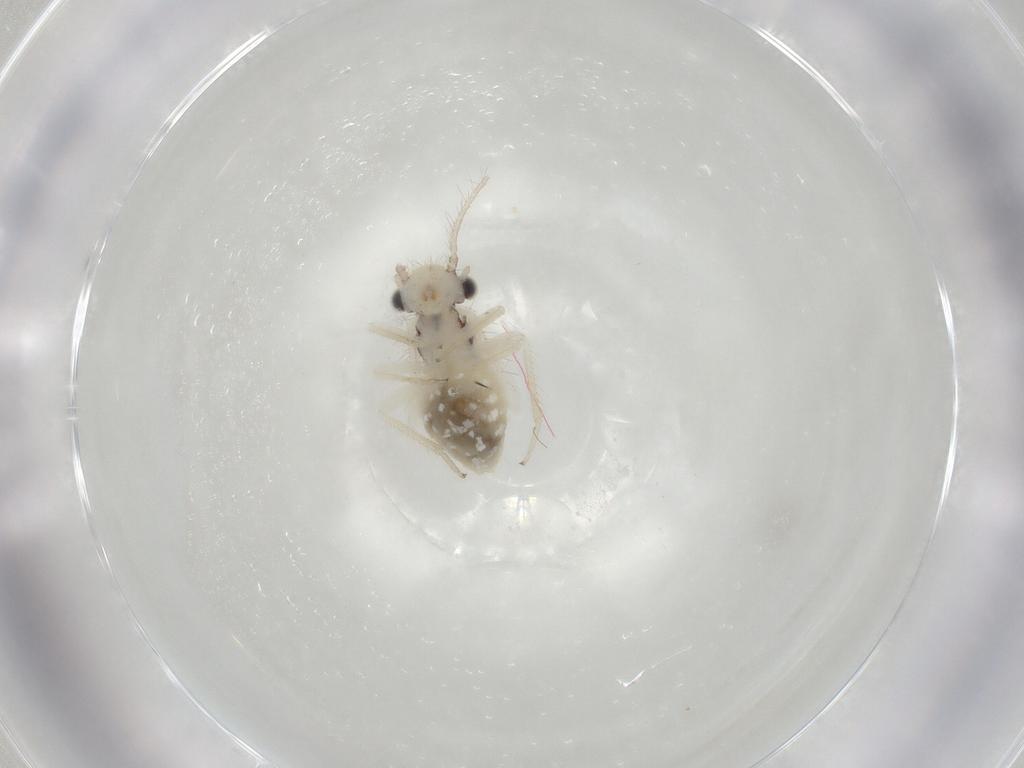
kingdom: Animalia
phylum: Arthropoda
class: Insecta
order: Psocodea
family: Philotarsidae
